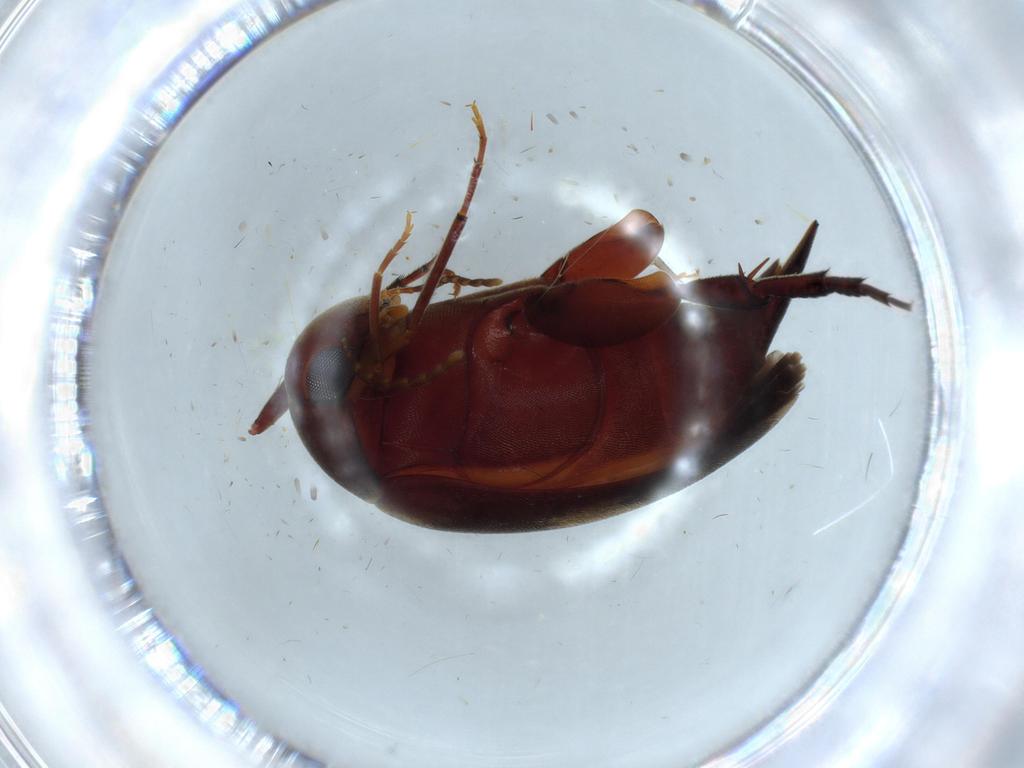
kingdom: Animalia
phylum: Arthropoda
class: Insecta
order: Coleoptera
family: Mordellidae
